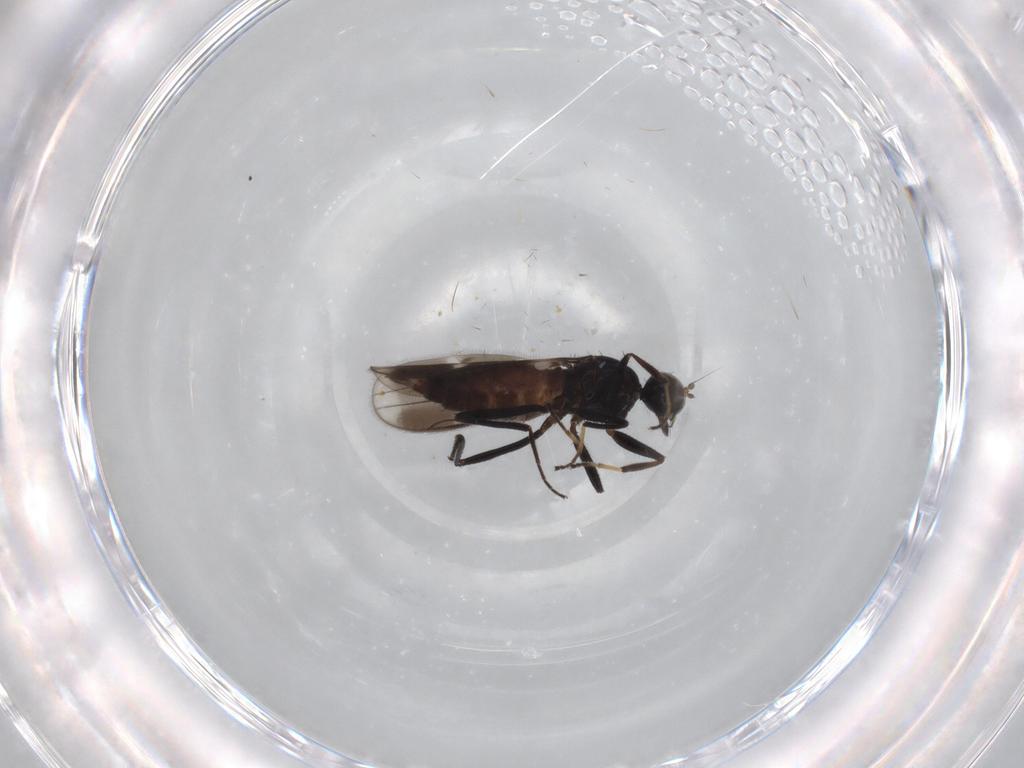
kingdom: Animalia
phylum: Arthropoda
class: Insecta
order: Diptera
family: Hybotidae
